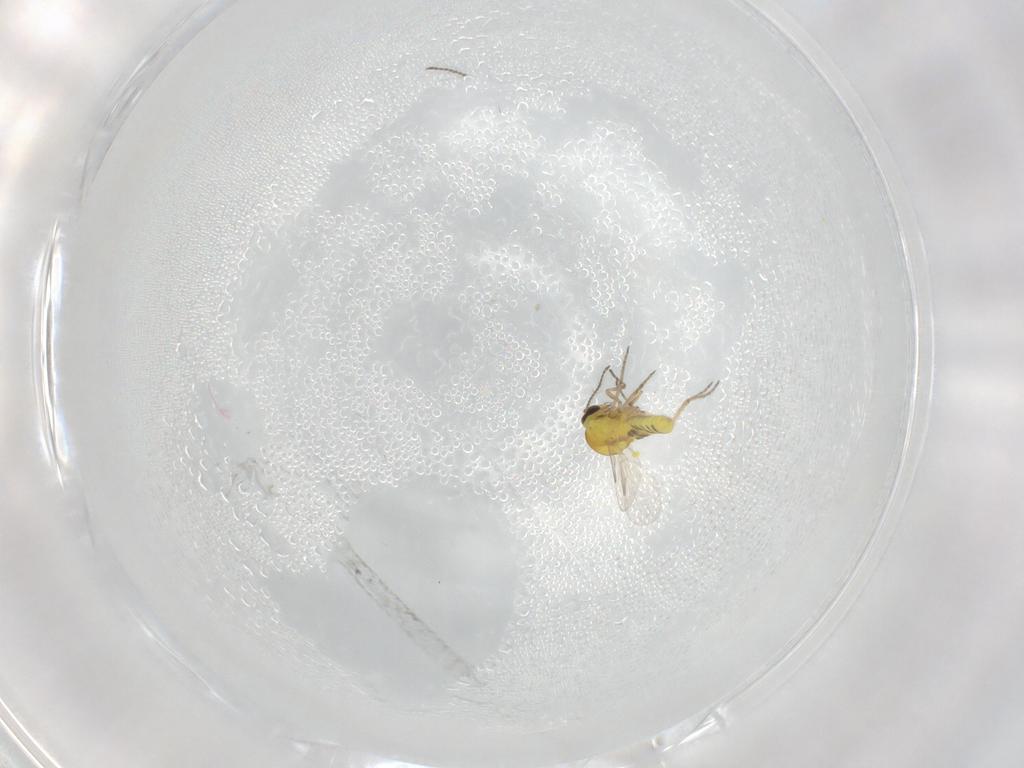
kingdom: Animalia
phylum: Arthropoda
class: Insecta
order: Diptera
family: Ceratopogonidae
